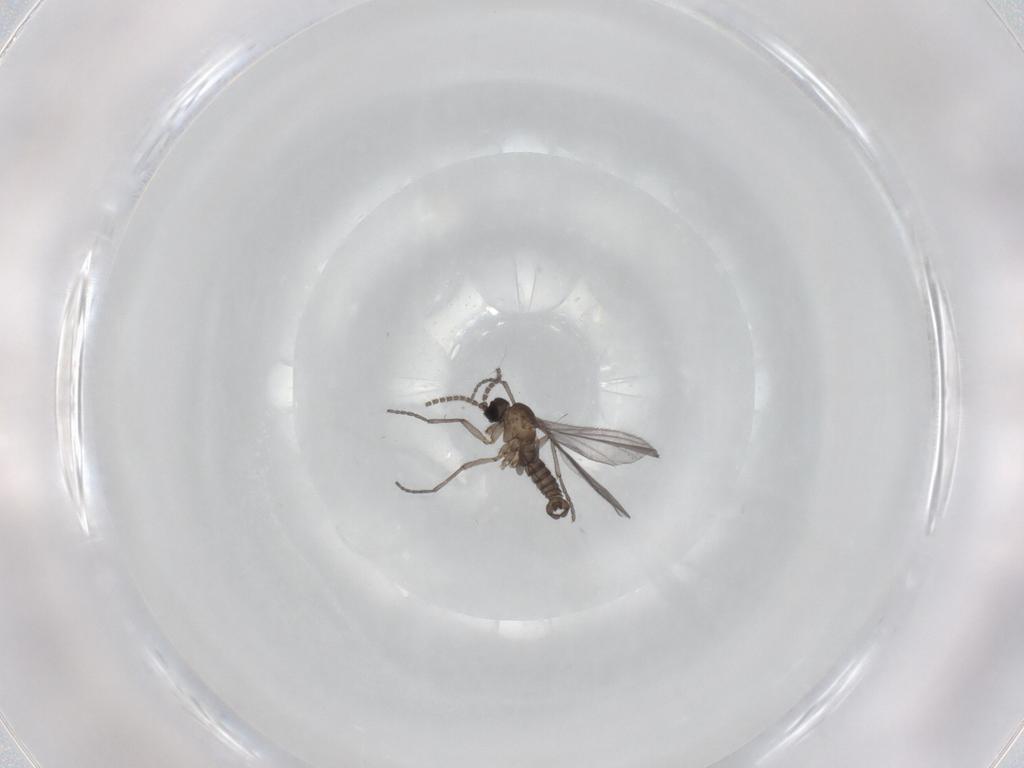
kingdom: Animalia
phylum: Arthropoda
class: Insecta
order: Diptera
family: Sciaridae
